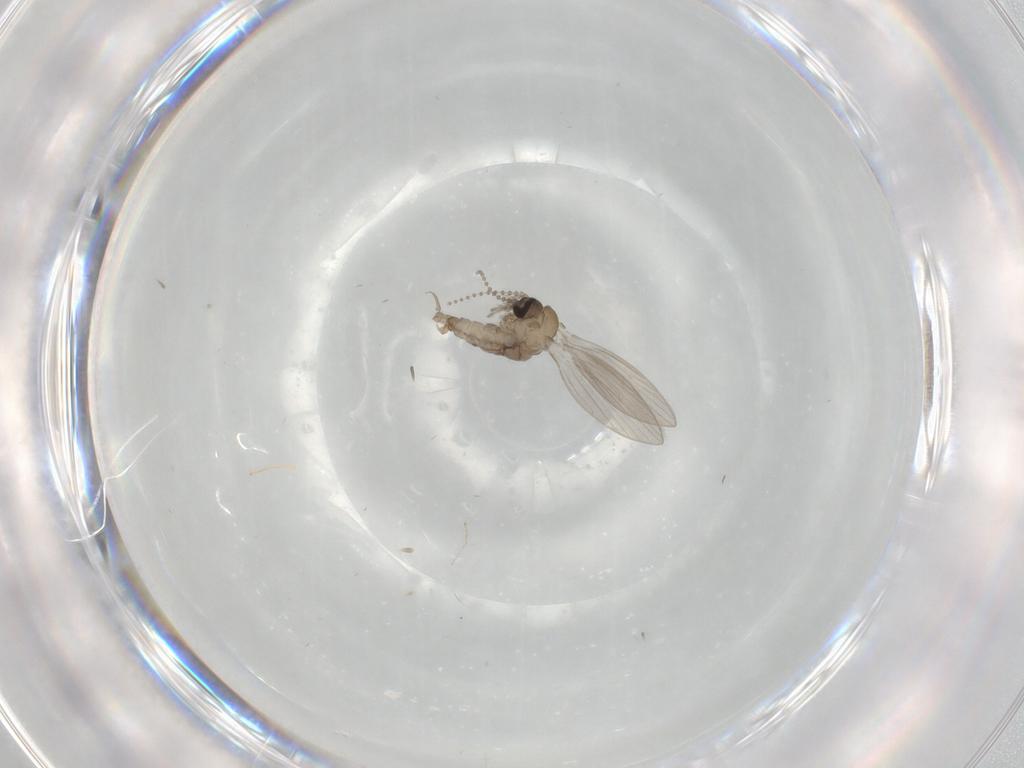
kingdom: Animalia
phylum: Arthropoda
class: Insecta
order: Diptera
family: Psychodidae
